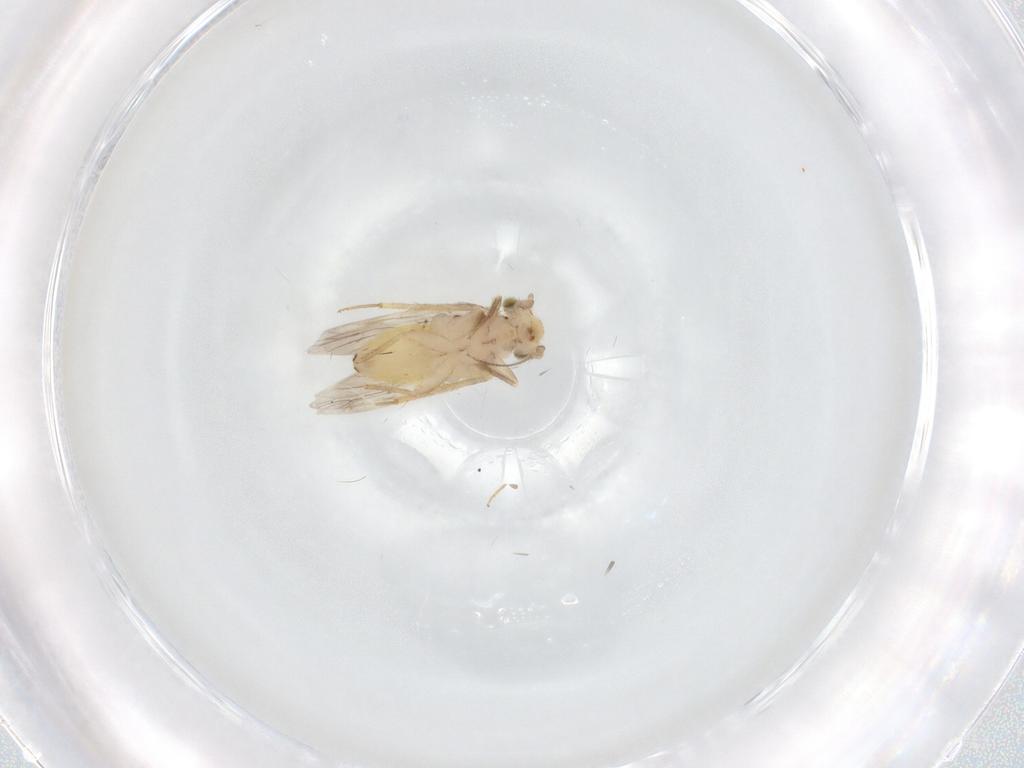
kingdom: Animalia
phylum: Arthropoda
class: Insecta
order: Psocodea
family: Lepidopsocidae
